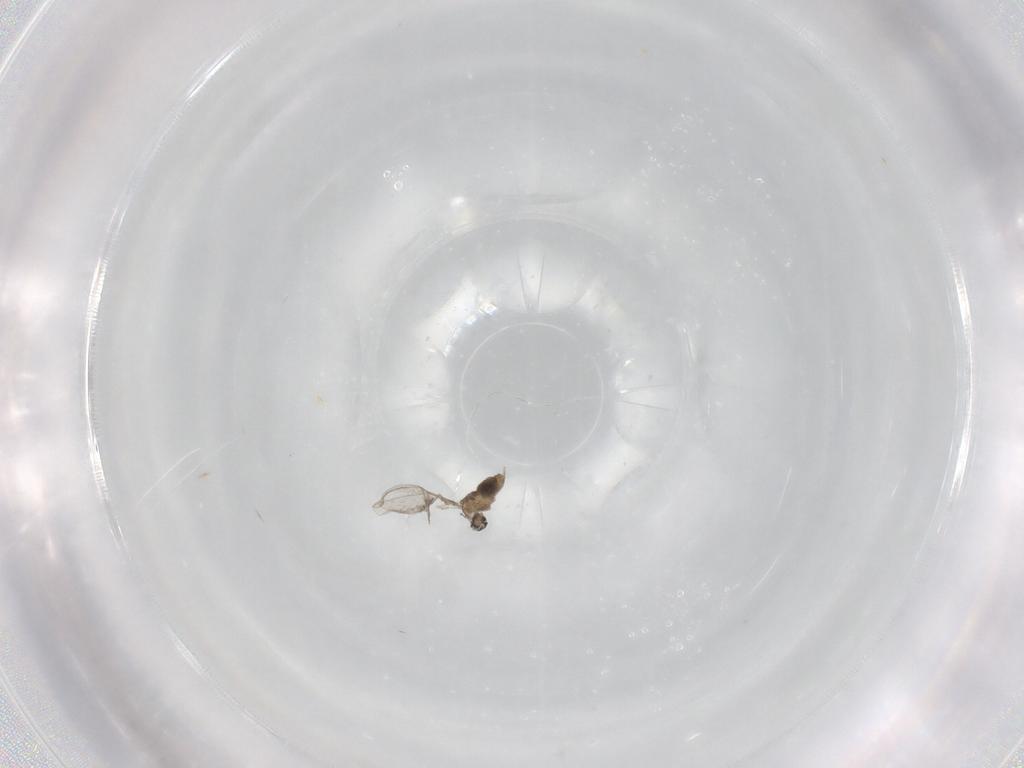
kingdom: Animalia
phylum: Arthropoda
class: Insecta
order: Diptera
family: Cecidomyiidae
